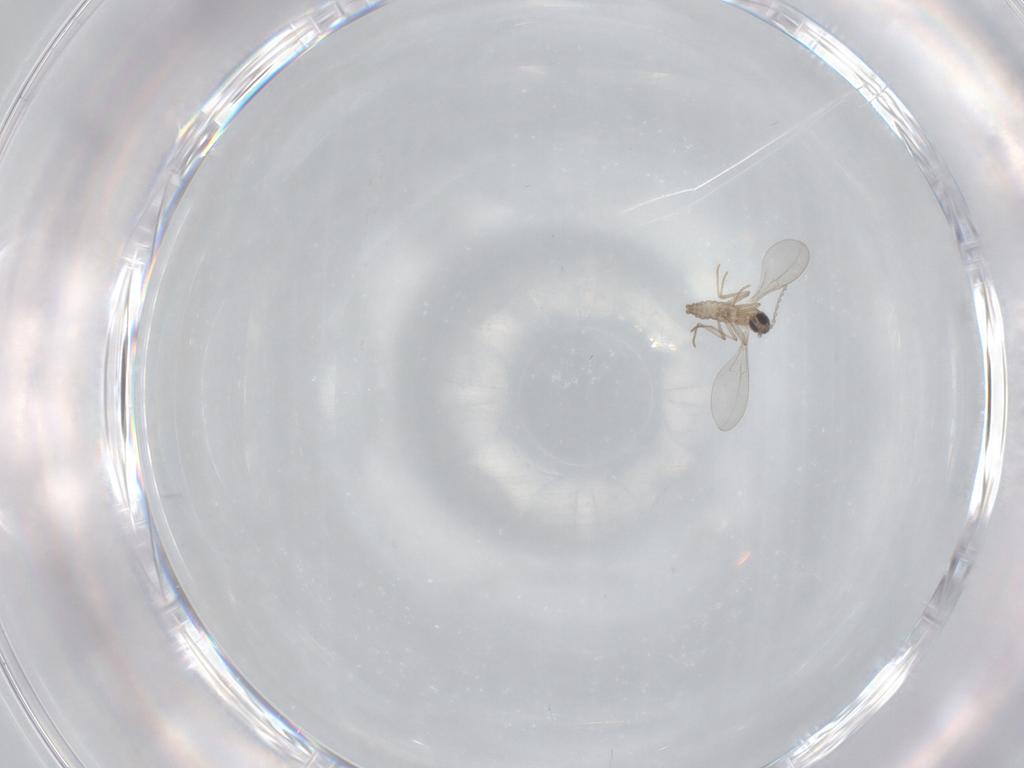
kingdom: Animalia
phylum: Arthropoda
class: Insecta
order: Diptera
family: Cecidomyiidae
